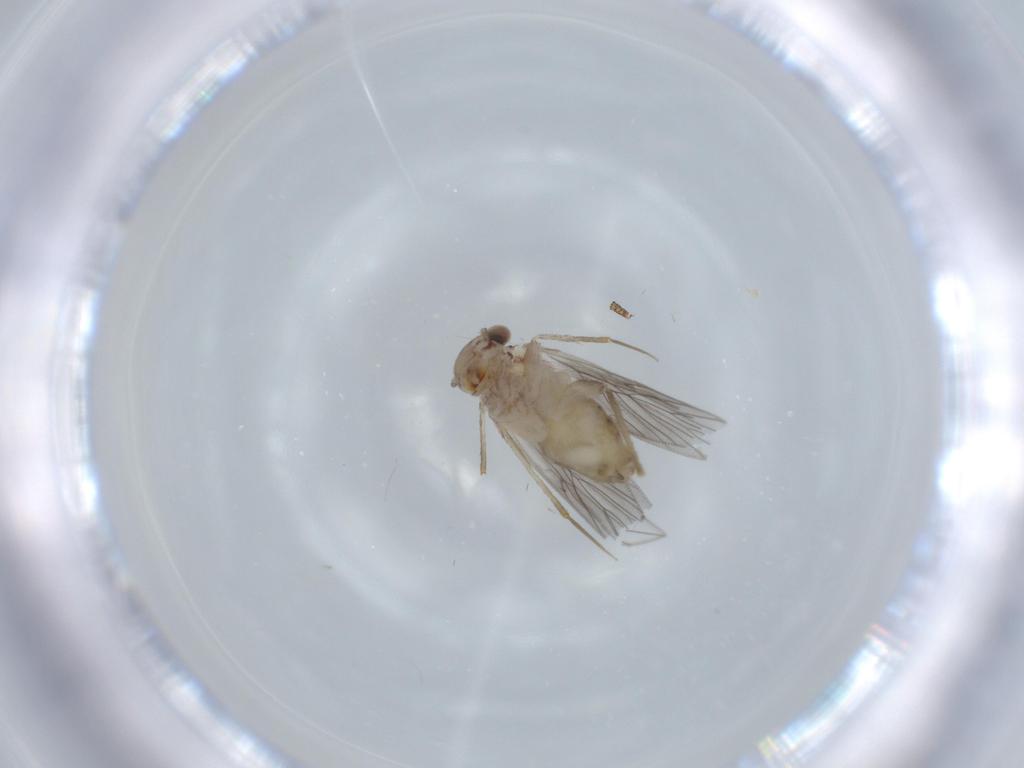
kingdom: Animalia
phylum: Arthropoda
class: Insecta
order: Psocodea
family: Lepidopsocidae
